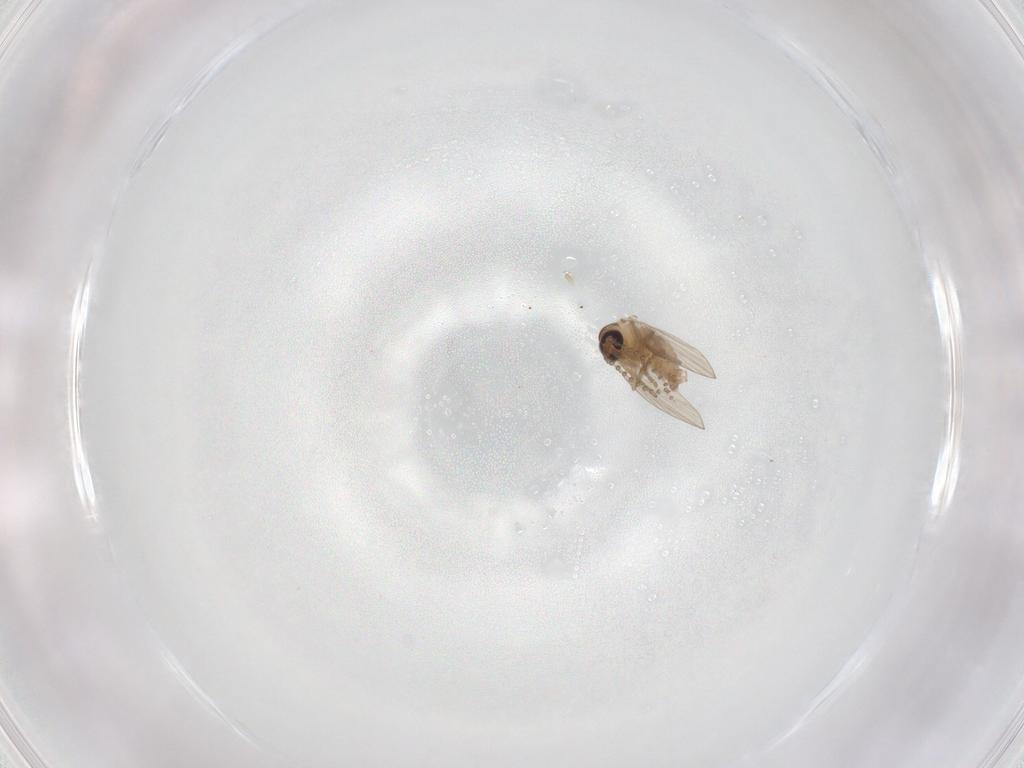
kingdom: Animalia
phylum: Arthropoda
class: Insecta
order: Diptera
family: Psychodidae
